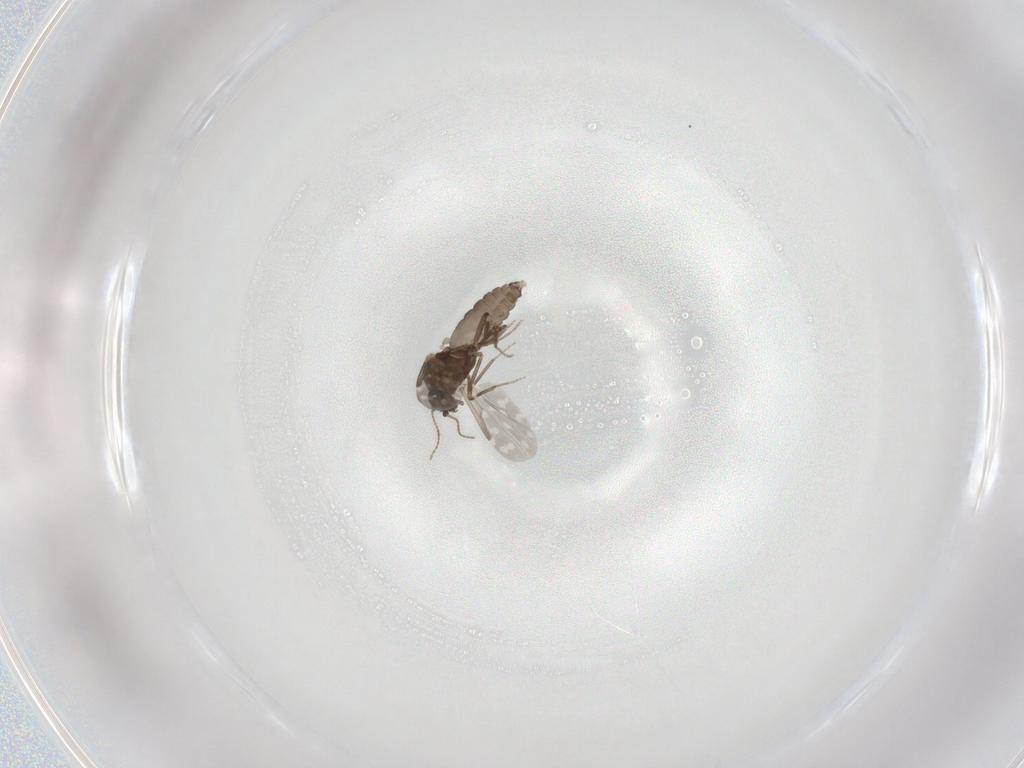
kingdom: Animalia
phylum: Arthropoda
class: Insecta
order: Diptera
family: Ceratopogonidae
